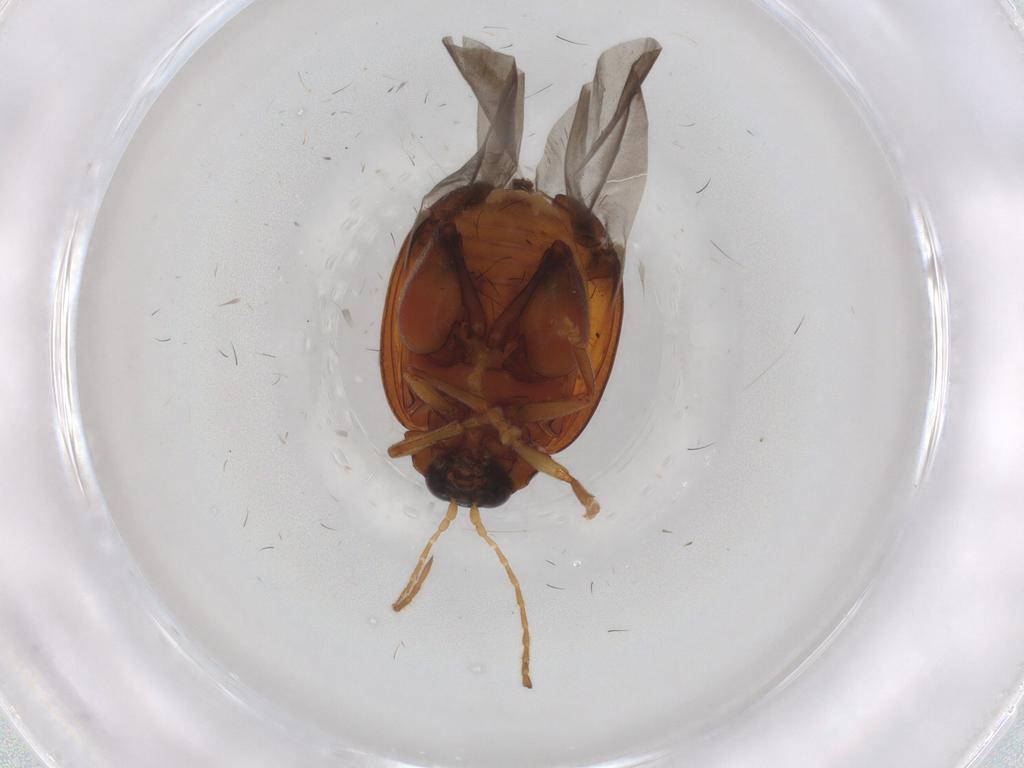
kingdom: Animalia
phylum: Arthropoda
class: Insecta
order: Coleoptera
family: Chrysomelidae
